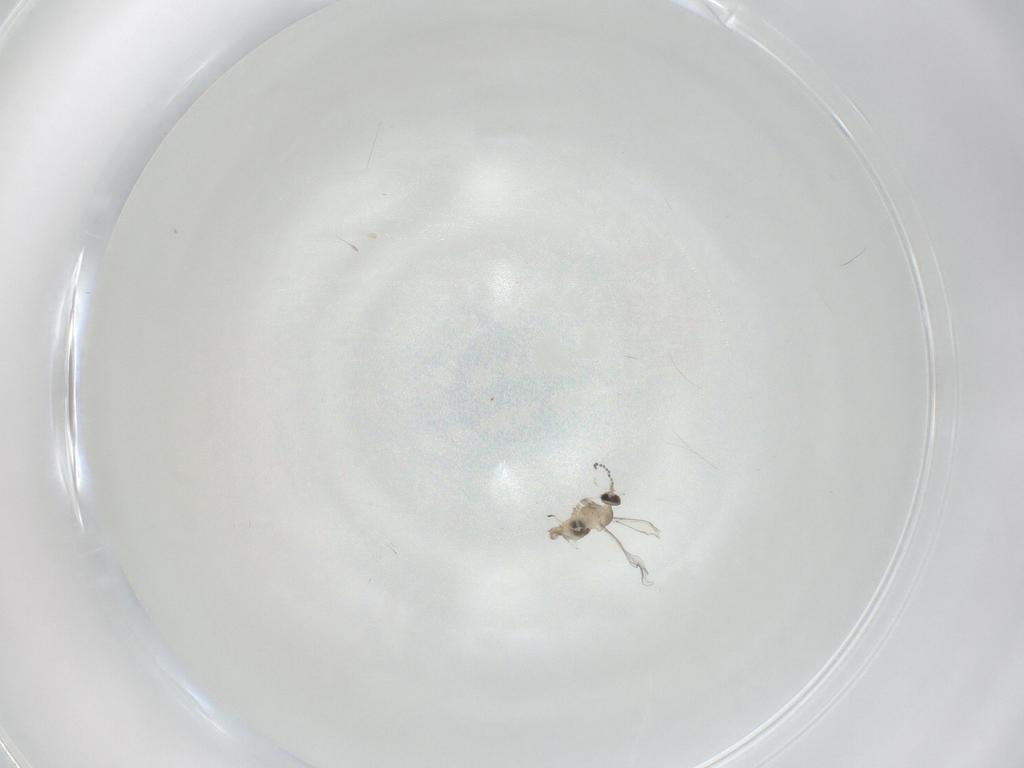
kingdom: Animalia
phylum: Arthropoda
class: Insecta
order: Diptera
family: Cecidomyiidae
